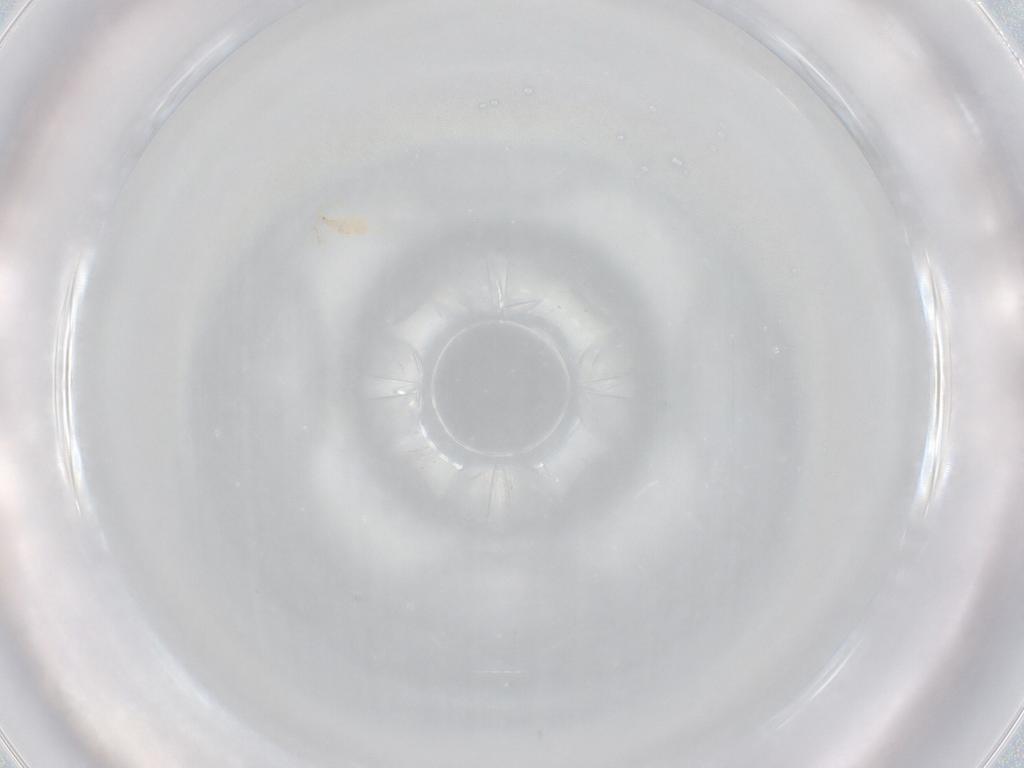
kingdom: Animalia
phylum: Arthropoda
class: Arachnida
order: Mesostigmata
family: Phytoseiidae
